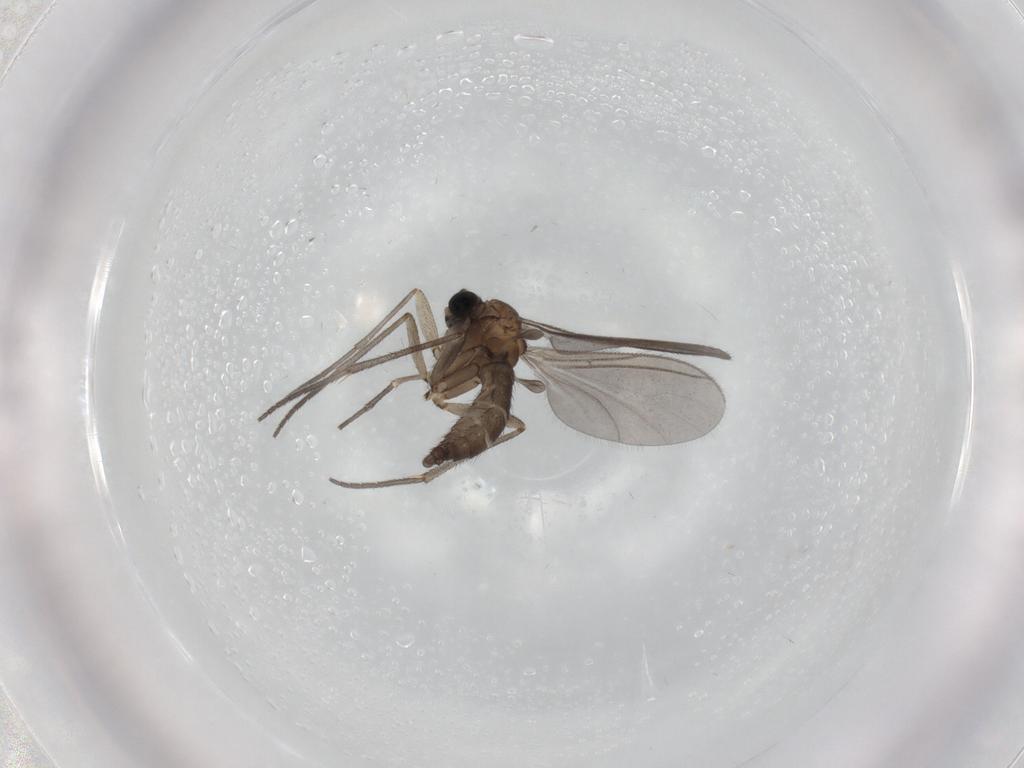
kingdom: Animalia
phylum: Arthropoda
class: Insecta
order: Diptera
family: Sciaridae
